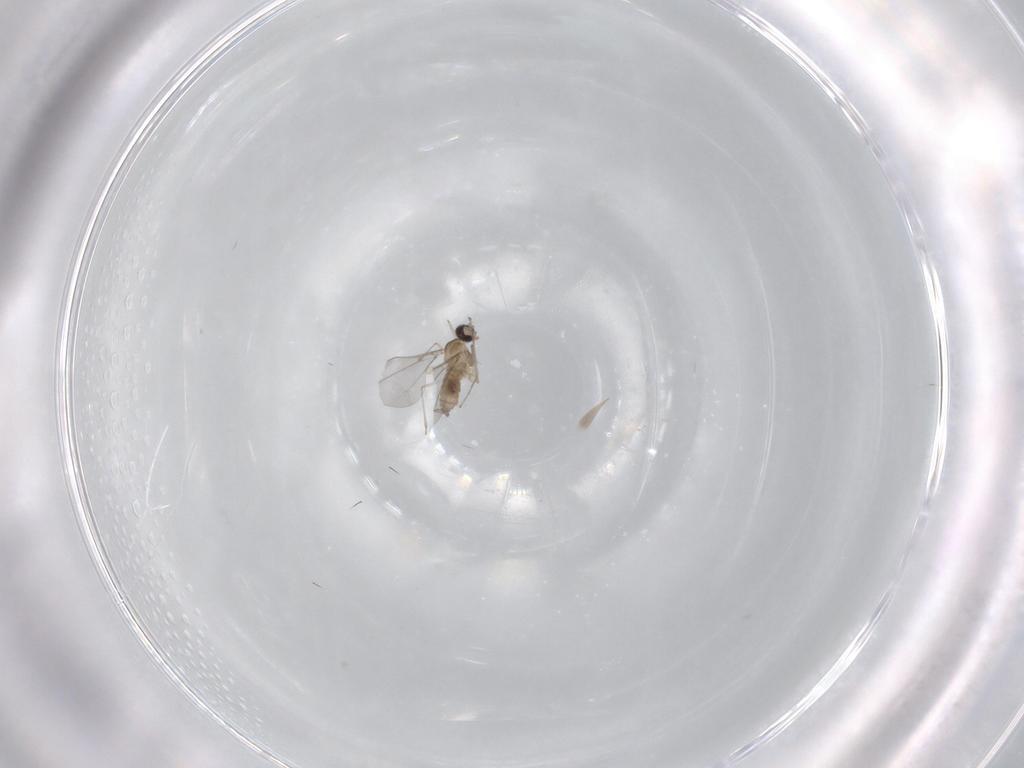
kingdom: Animalia
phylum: Arthropoda
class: Insecta
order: Diptera
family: Cecidomyiidae
